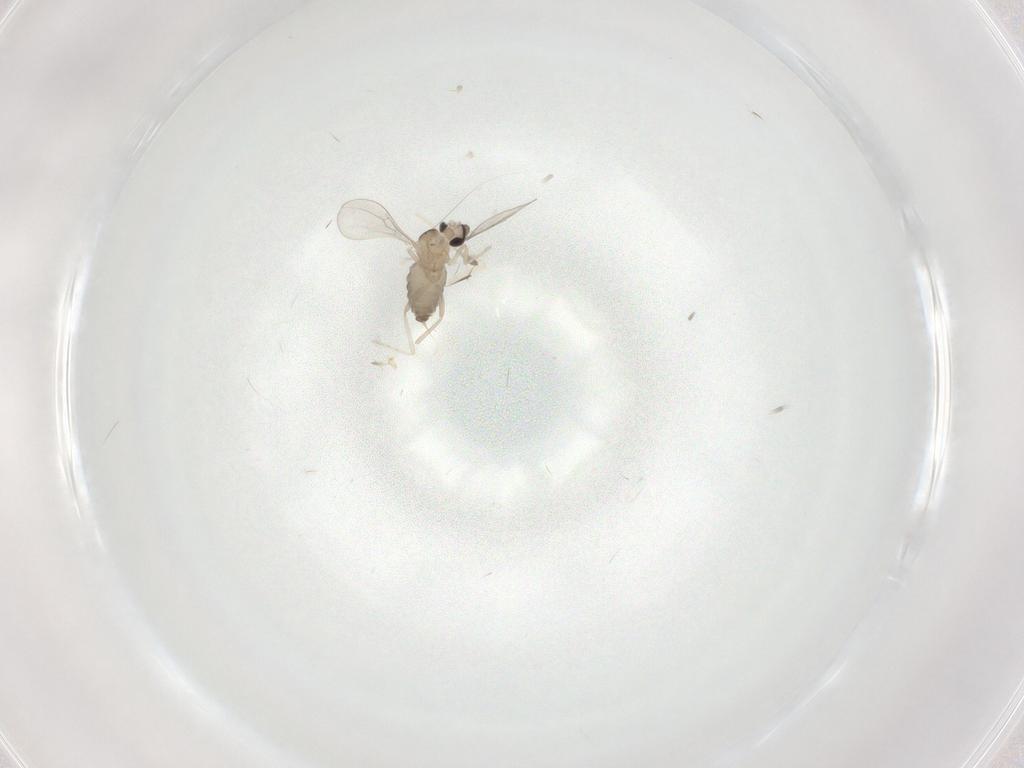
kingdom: Animalia
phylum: Arthropoda
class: Insecta
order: Diptera
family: Cecidomyiidae
